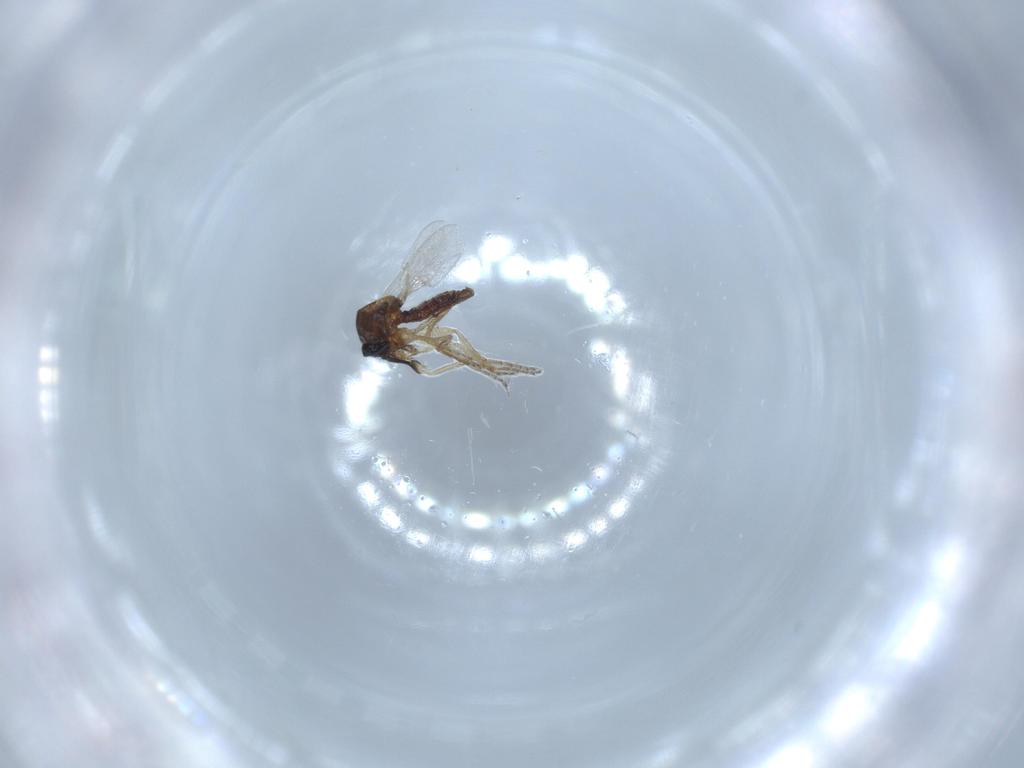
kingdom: Animalia
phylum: Arthropoda
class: Insecta
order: Diptera
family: Ceratopogonidae
